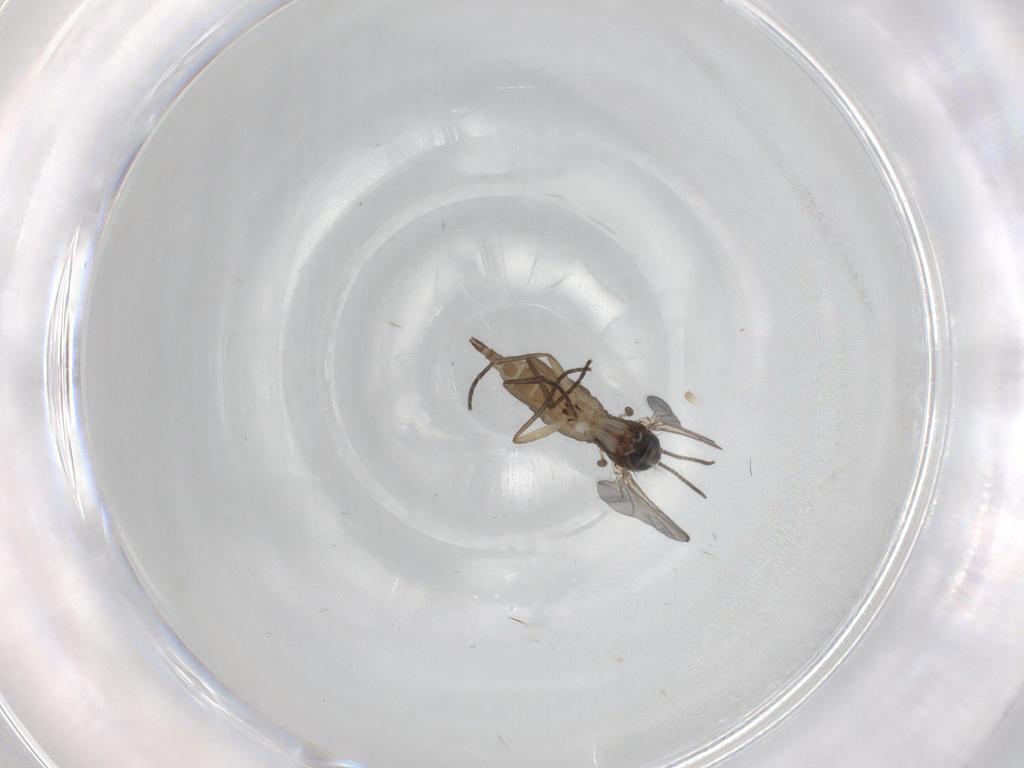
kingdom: Animalia
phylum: Arthropoda
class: Insecta
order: Diptera
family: Sciaridae
